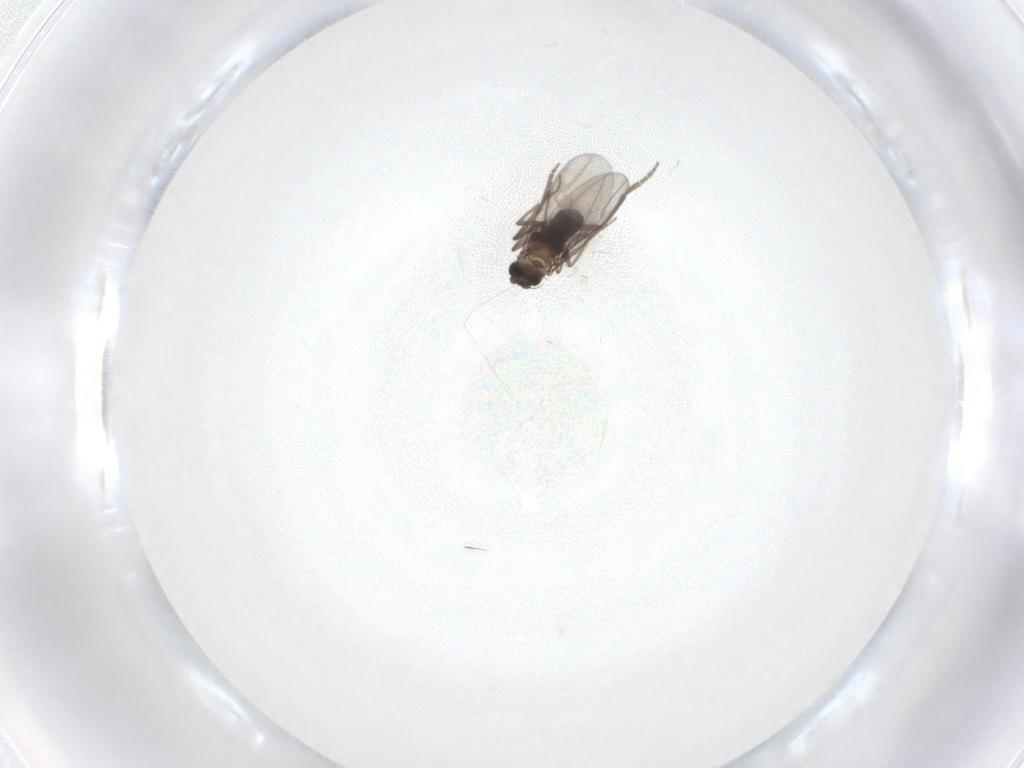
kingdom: Animalia
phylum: Arthropoda
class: Insecta
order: Diptera
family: Drosophilidae
